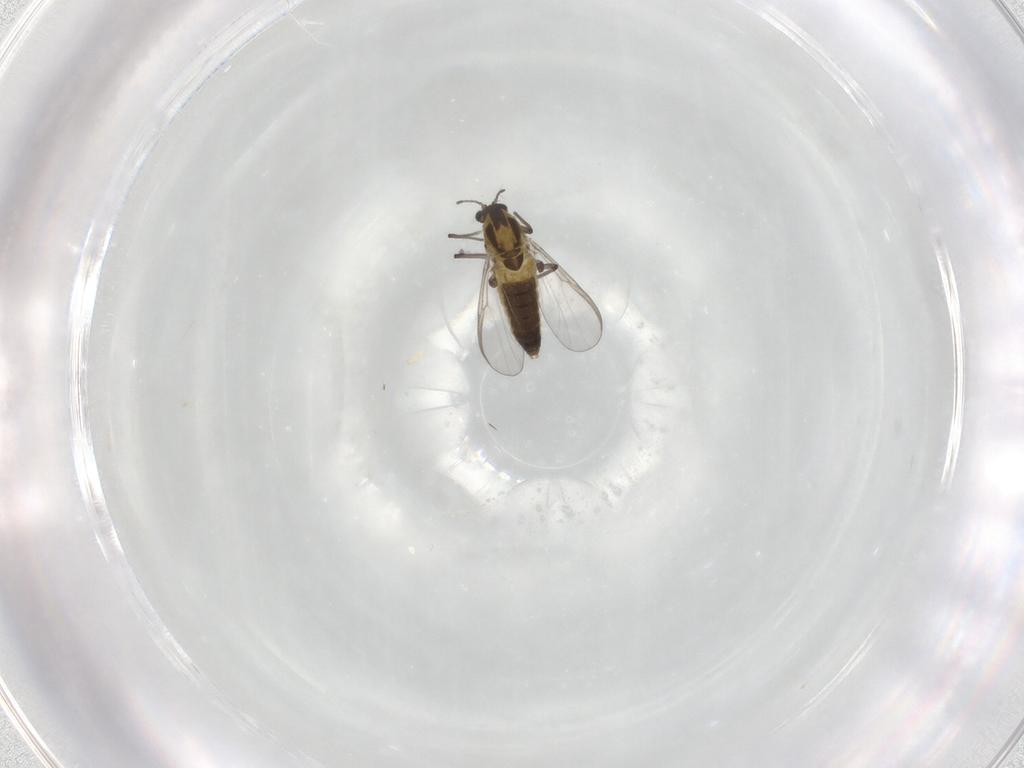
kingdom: Animalia
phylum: Arthropoda
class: Insecta
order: Diptera
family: Chironomidae
